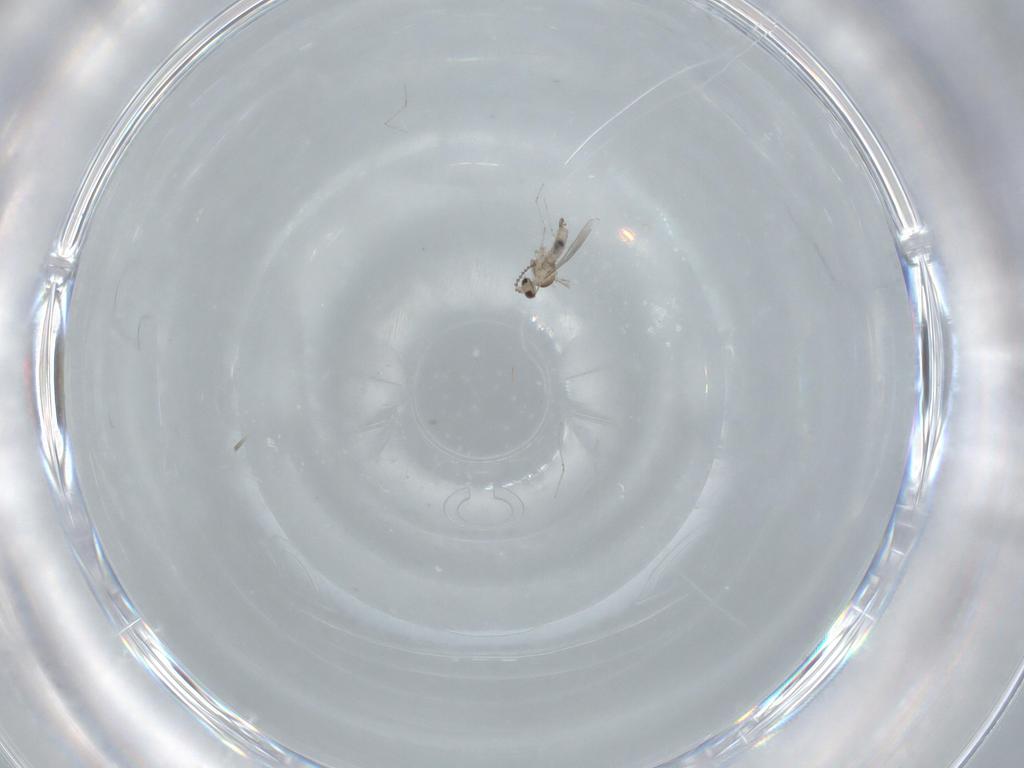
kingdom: Animalia
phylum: Arthropoda
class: Insecta
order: Diptera
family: Cecidomyiidae
